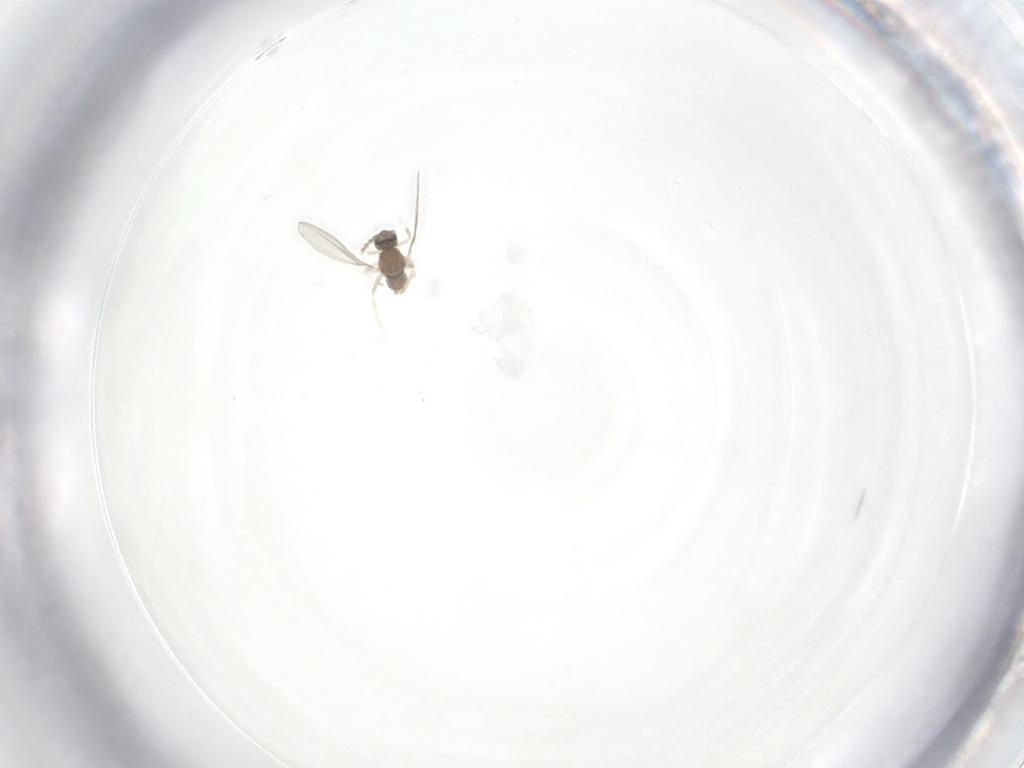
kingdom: Animalia
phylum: Arthropoda
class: Insecta
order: Diptera
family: Cecidomyiidae
